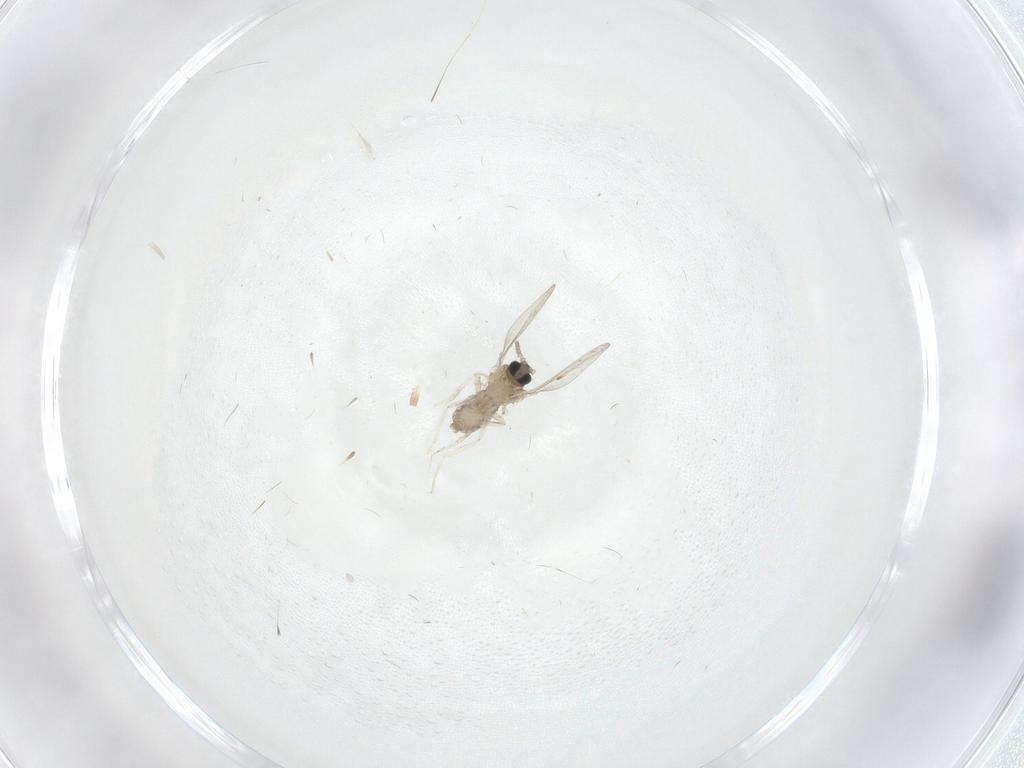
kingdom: Animalia
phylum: Arthropoda
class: Insecta
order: Diptera
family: Cecidomyiidae
